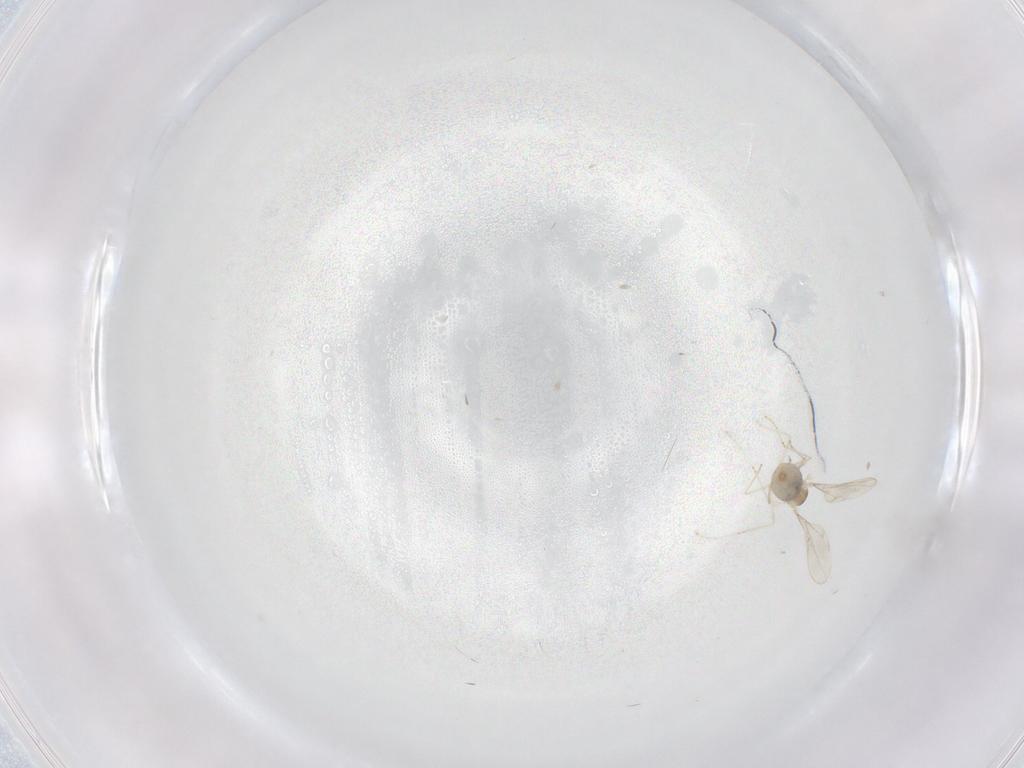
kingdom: Animalia
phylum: Arthropoda
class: Insecta
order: Diptera
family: Cecidomyiidae
